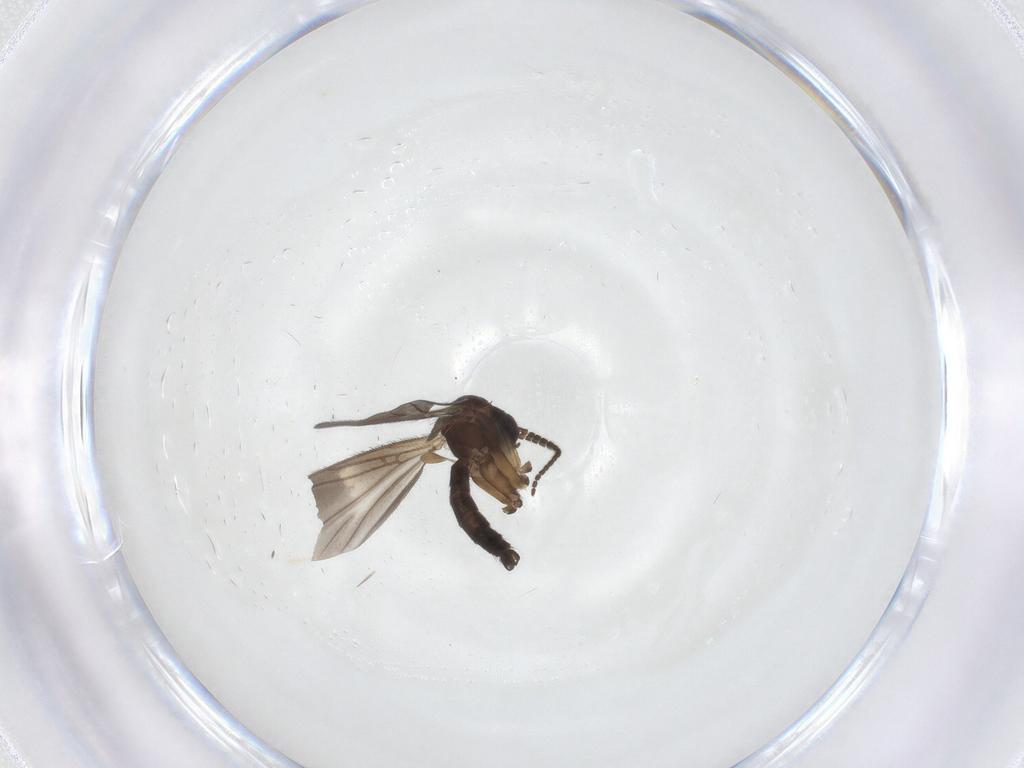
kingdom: Animalia
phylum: Arthropoda
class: Insecta
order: Diptera
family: Mycetophilidae
